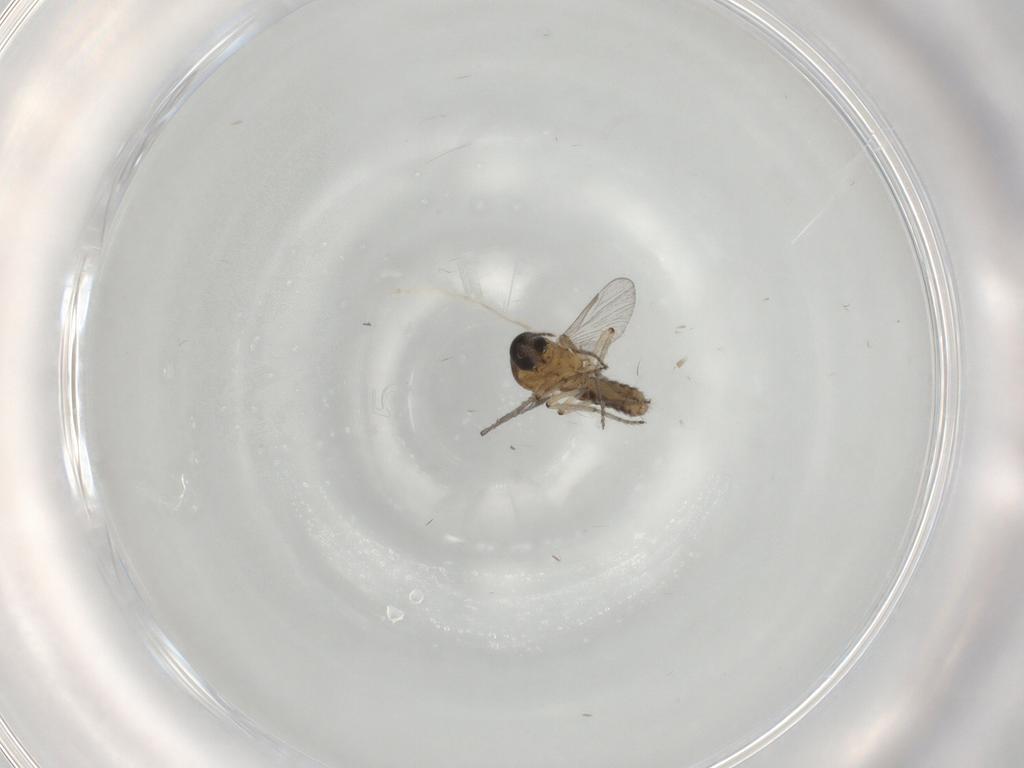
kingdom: Animalia
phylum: Arthropoda
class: Insecta
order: Diptera
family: Ceratopogonidae
